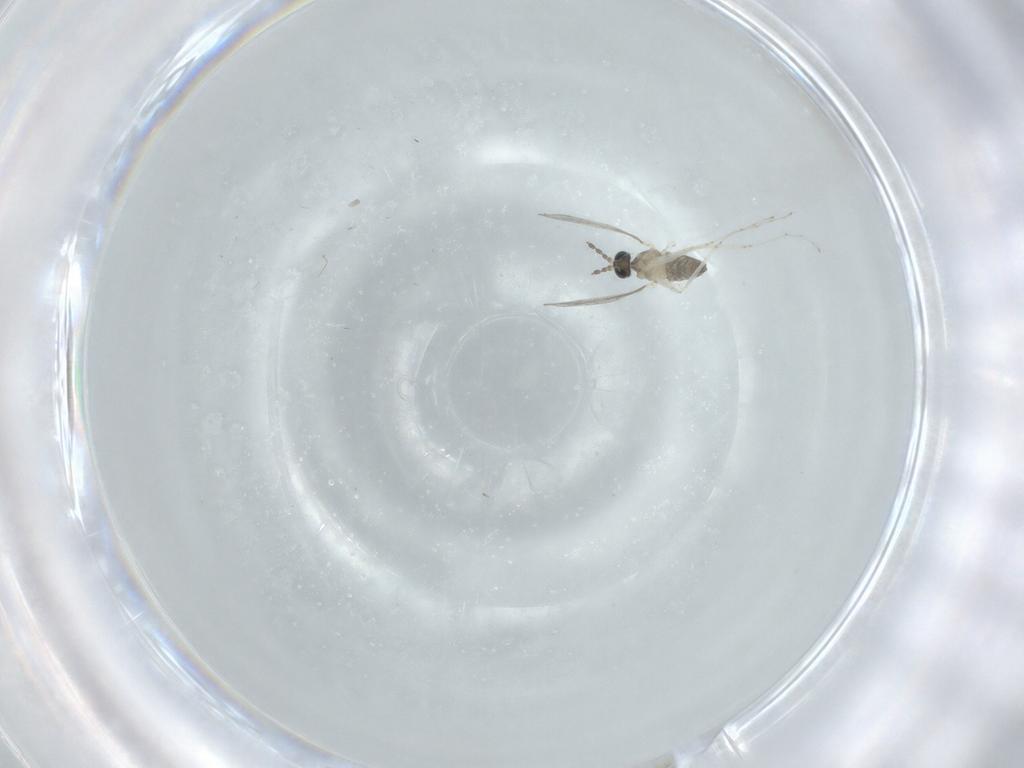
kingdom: Animalia
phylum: Arthropoda
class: Insecta
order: Diptera
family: Cecidomyiidae
